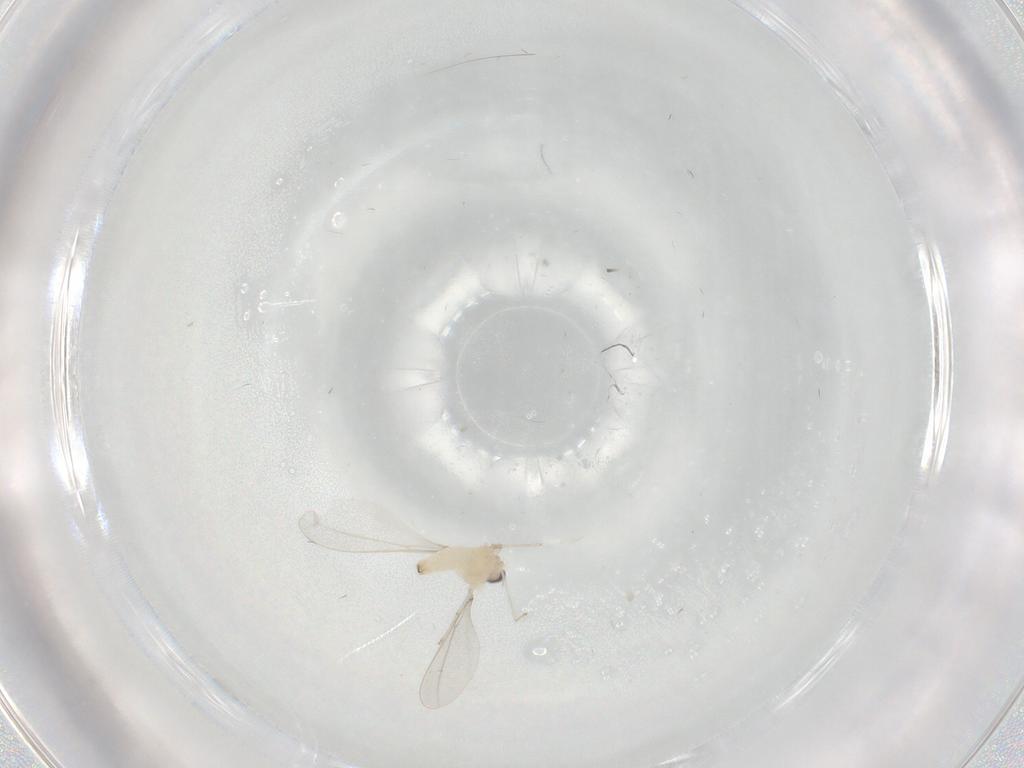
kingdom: Animalia
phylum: Arthropoda
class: Insecta
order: Diptera
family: Cecidomyiidae
